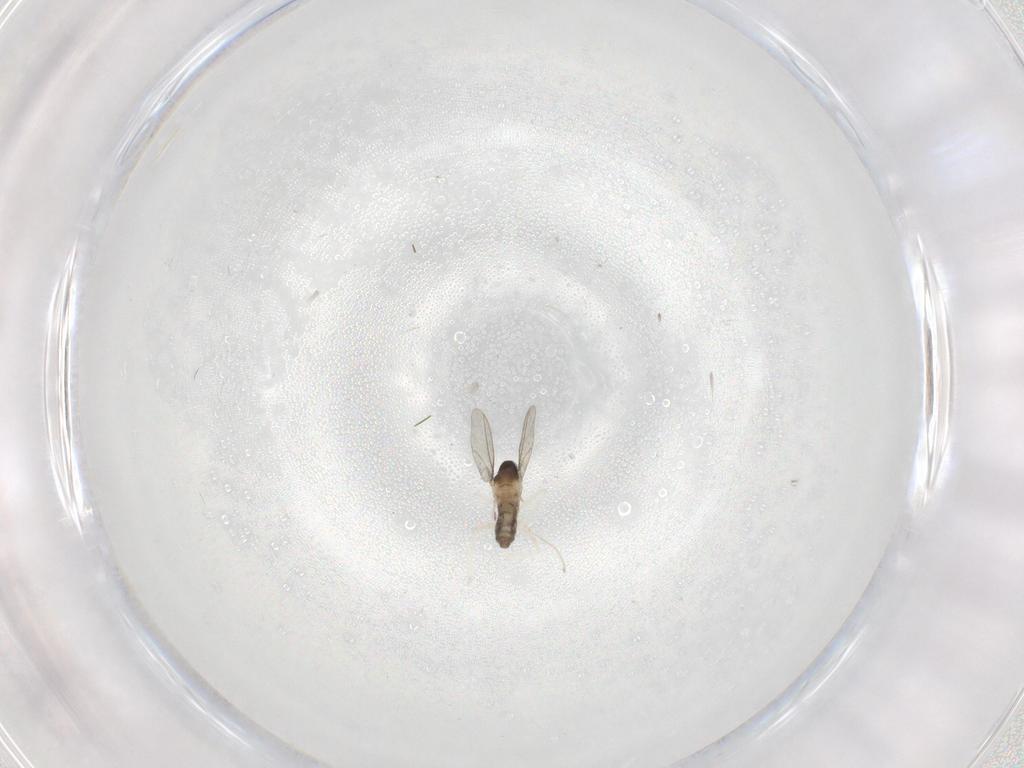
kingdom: Animalia
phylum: Arthropoda
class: Insecta
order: Diptera
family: Cecidomyiidae
